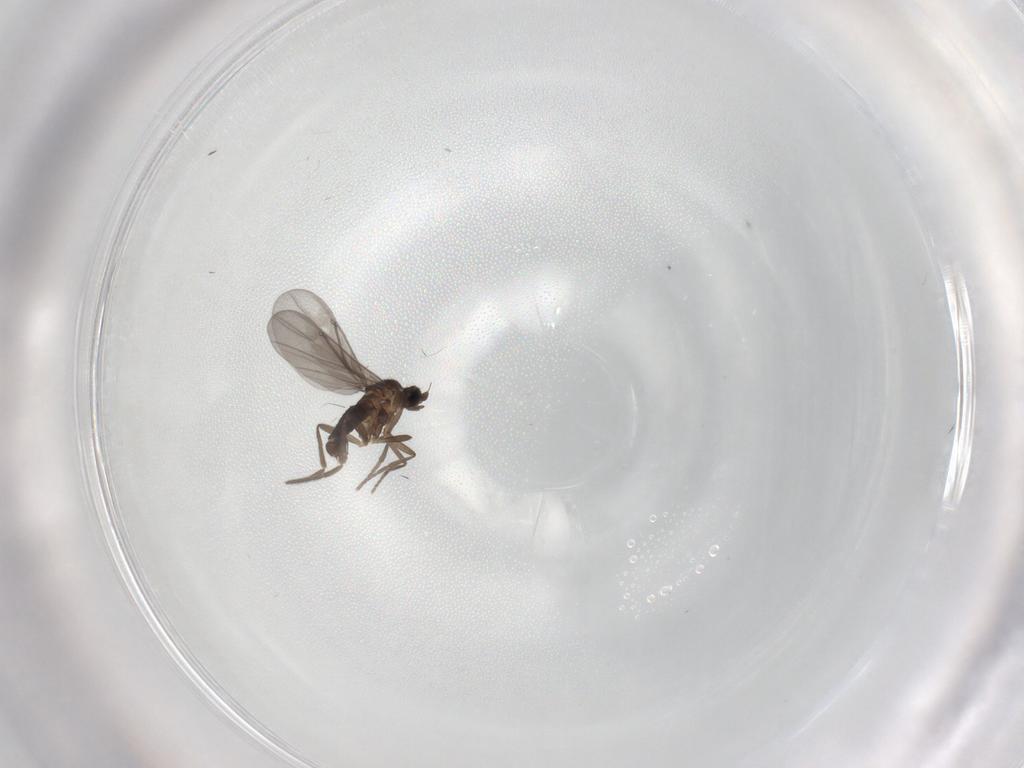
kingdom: Animalia
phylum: Arthropoda
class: Insecta
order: Diptera
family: Phoridae
